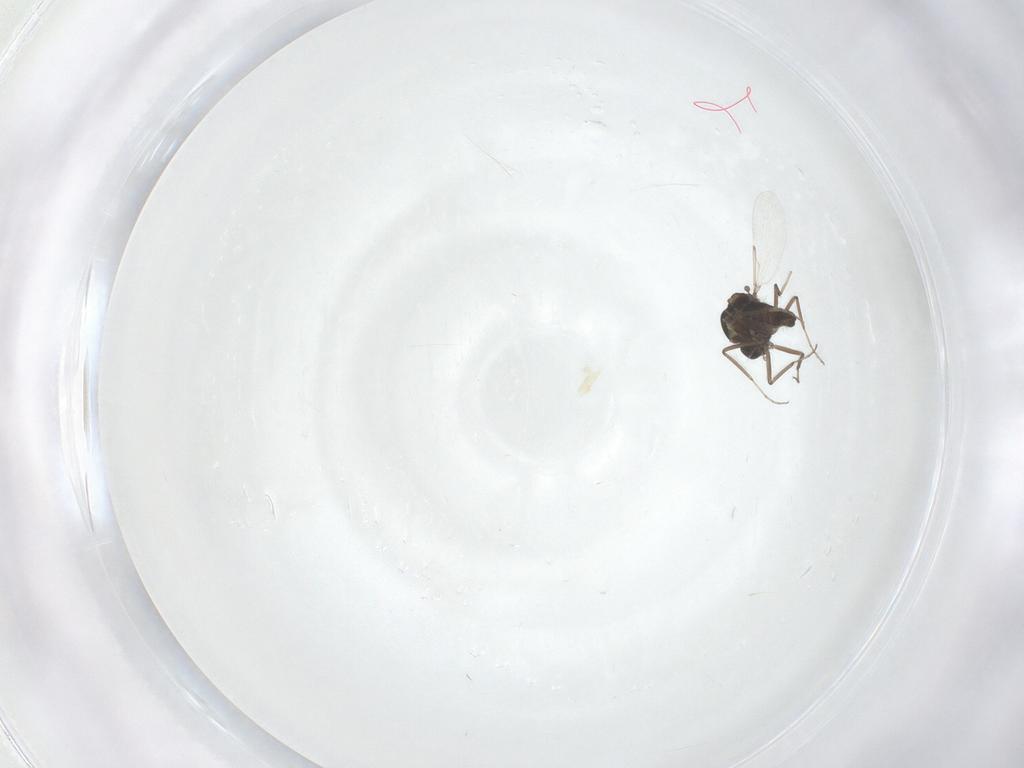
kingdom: Animalia
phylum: Arthropoda
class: Insecta
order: Diptera
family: Ceratopogonidae
